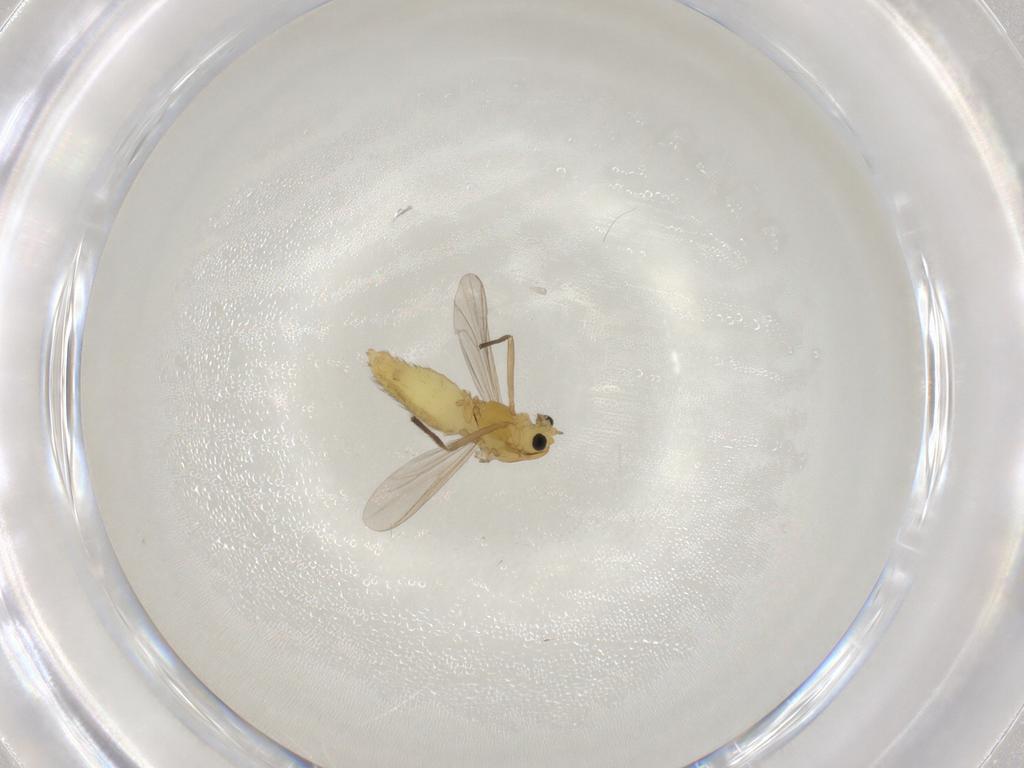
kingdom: Animalia
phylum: Arthropoda
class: Insecta
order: Diptera
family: Chironomidae
